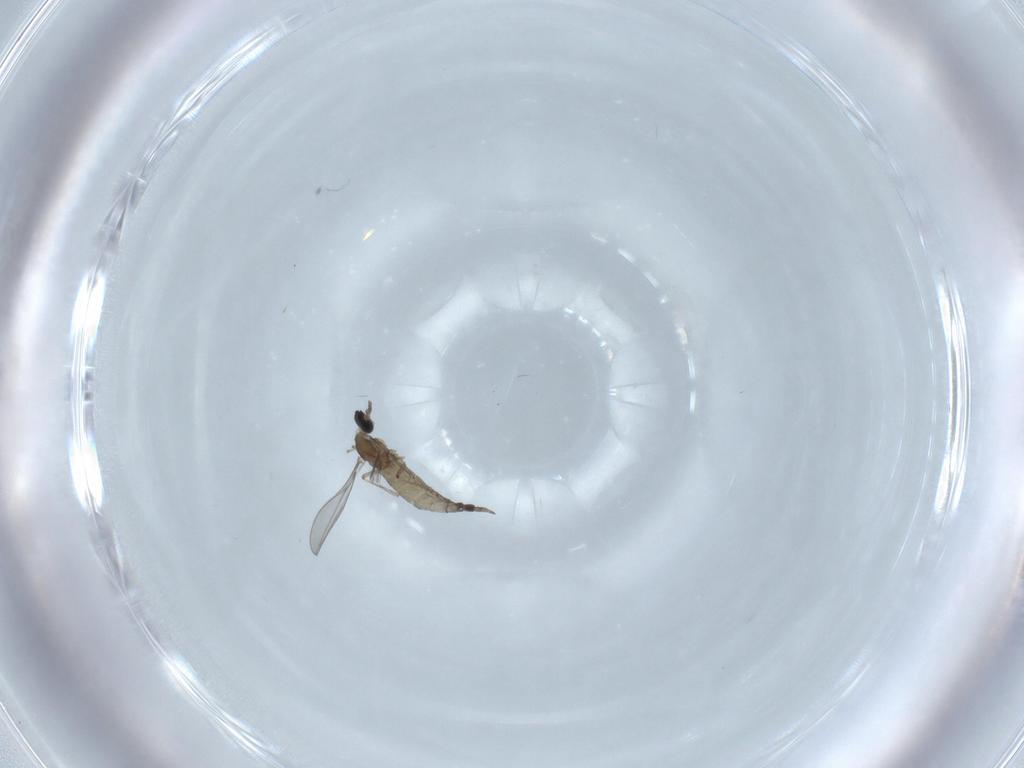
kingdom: Animalia
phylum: Arthropoda
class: Insecta
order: Diptera
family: Cecidomyiidae
